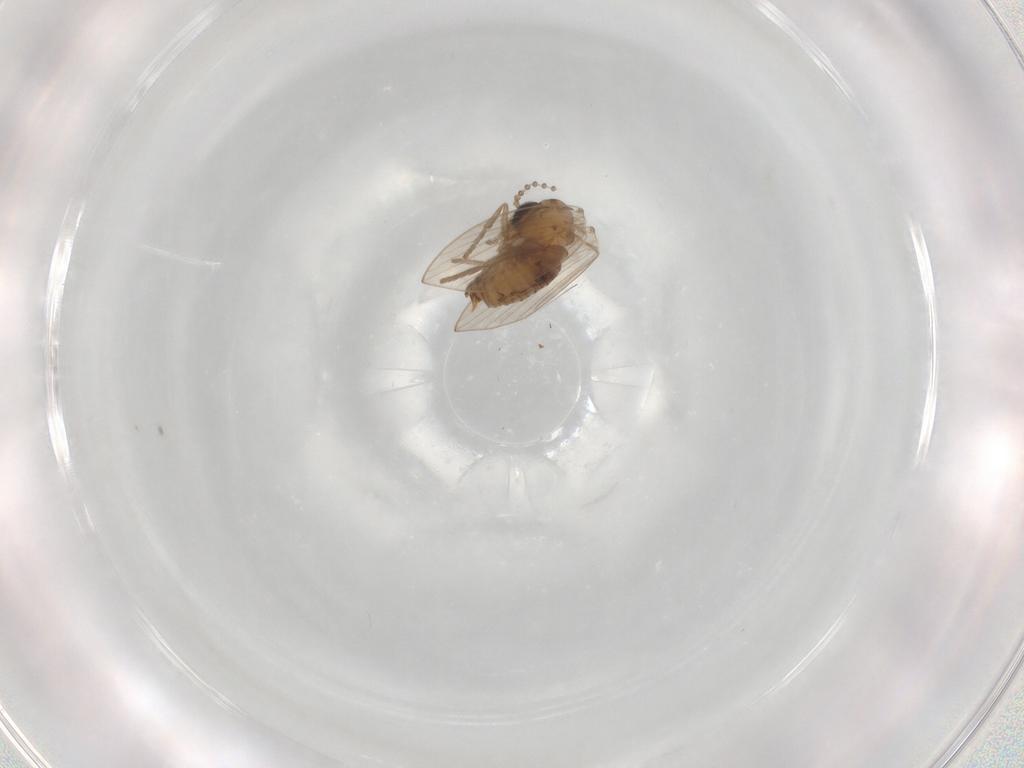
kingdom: Animalia
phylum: Arthropoda
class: Insecta
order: Diptera
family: Psychodidae
